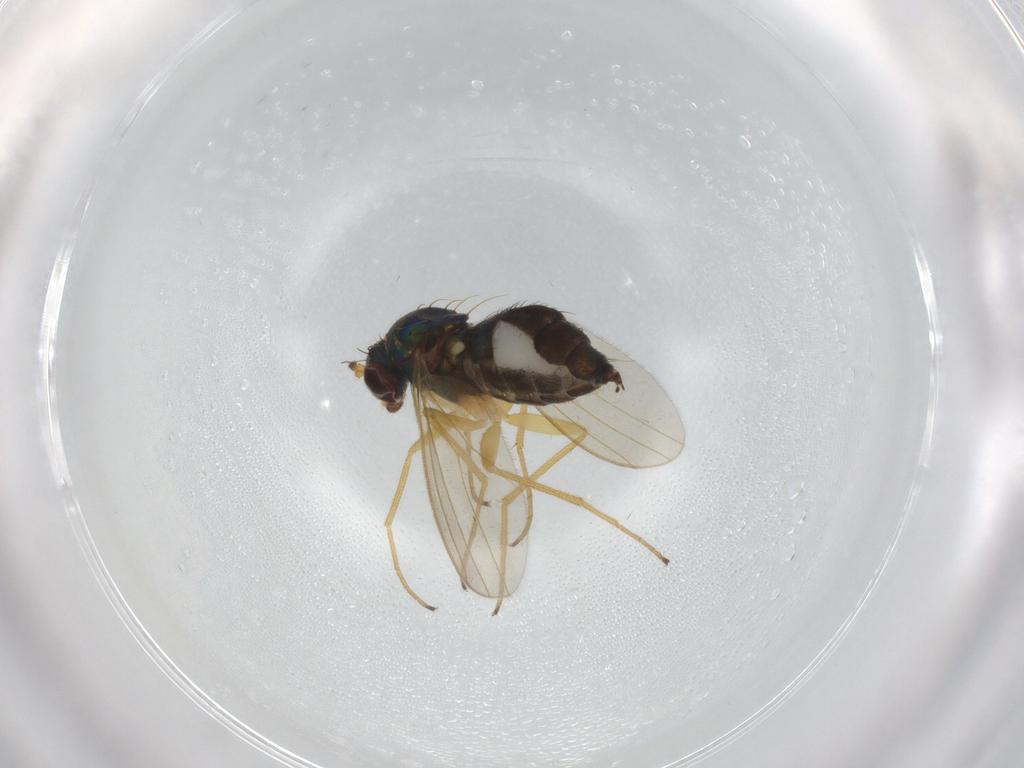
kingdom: Animalia
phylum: Arthropoda
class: Insecta
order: Diptera
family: Dolichopodidae
